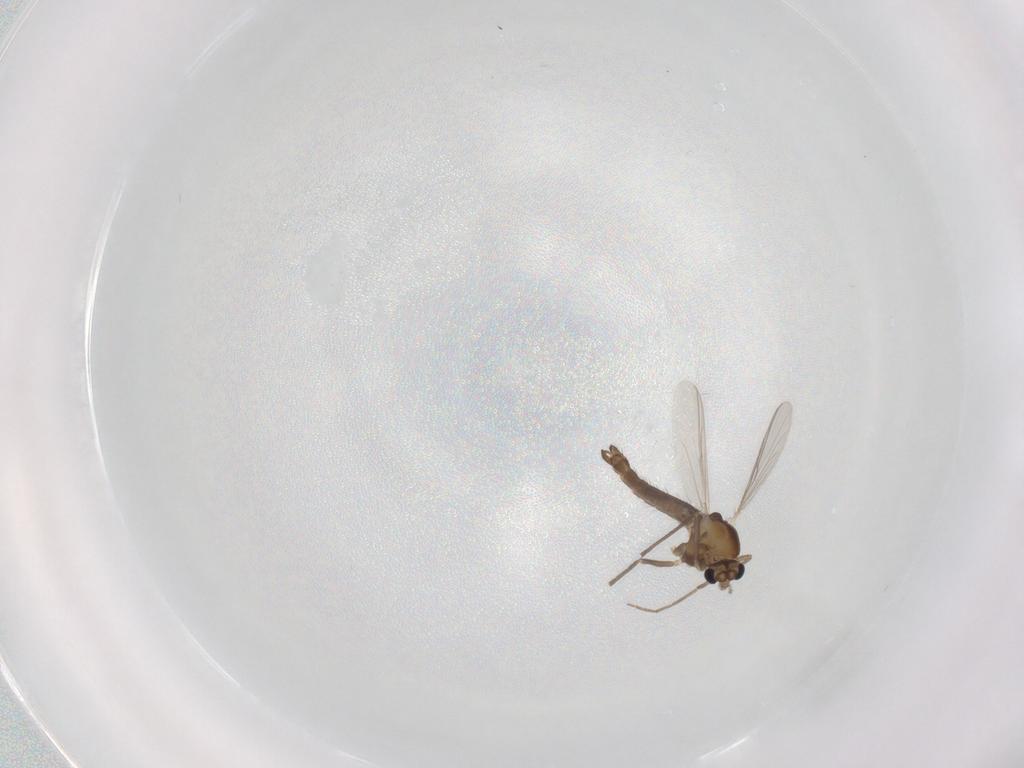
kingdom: Animalia
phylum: Arthropoda
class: Insecta
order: Diptera
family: Chironomidae
